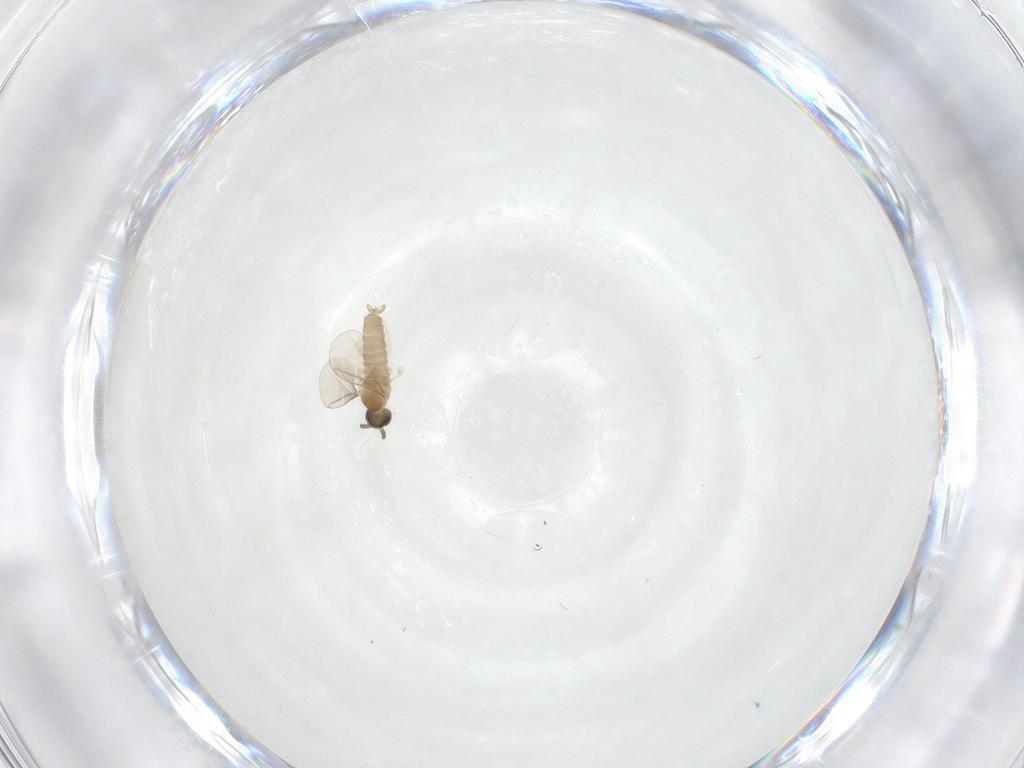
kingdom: Animalia
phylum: Arthropoda
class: Insecta
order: Diptera
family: Cecidomyiidae
